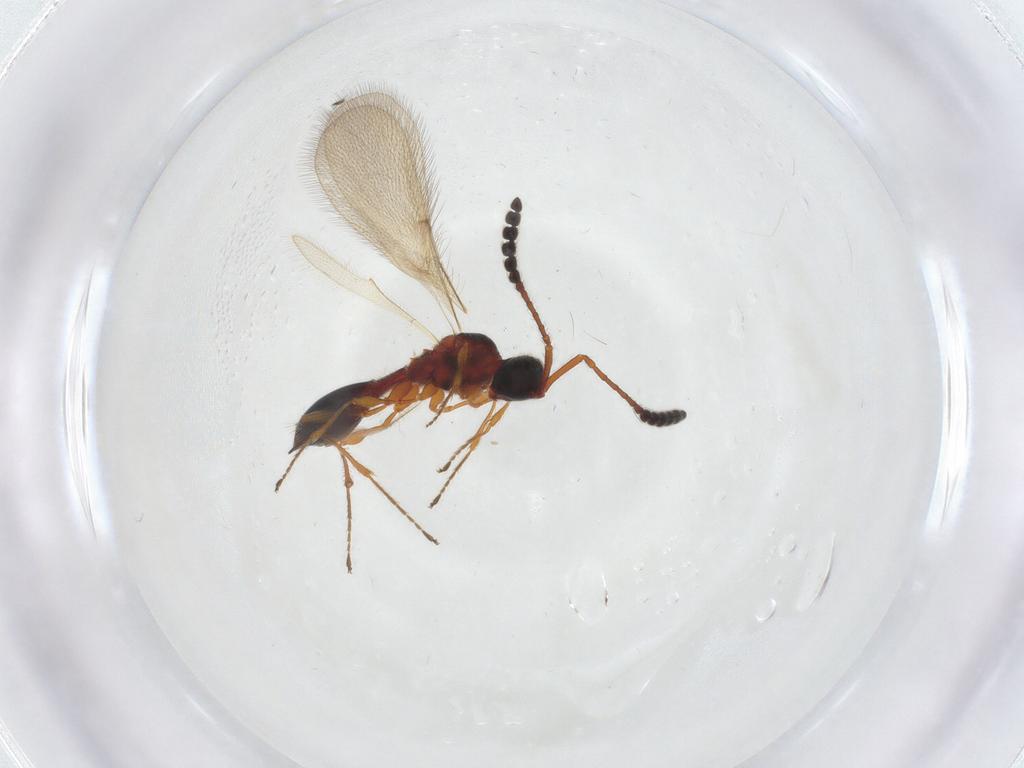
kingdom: Animalia
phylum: Arthropoda
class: Insecta
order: Hymenoptera
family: Diapriidae
